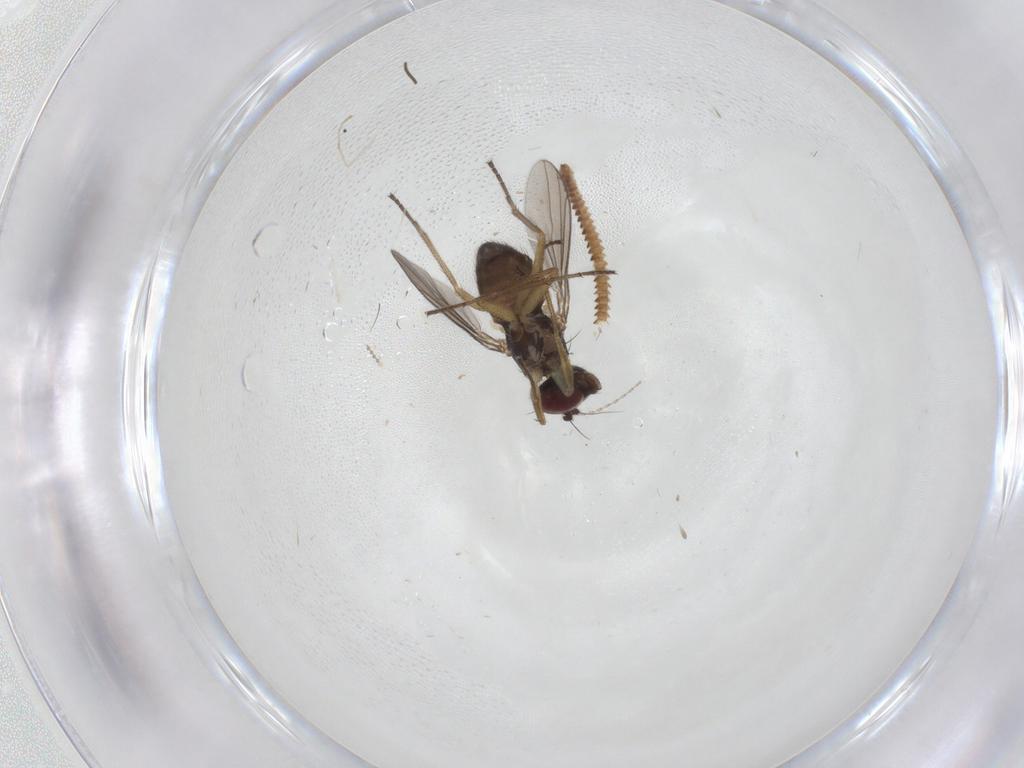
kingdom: Animalia
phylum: Arthropoda
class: Insecta
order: Diptera
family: Dolichopodidae
